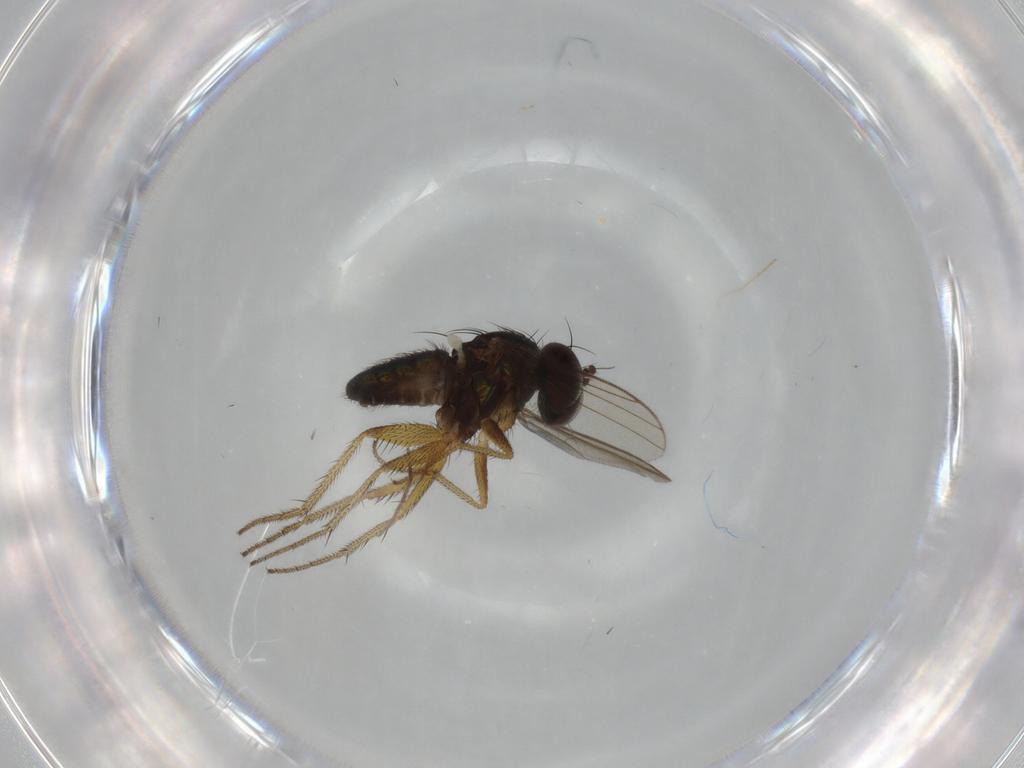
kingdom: Animalia
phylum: Arthropoda
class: Insecta
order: Diptera
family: Dolichopodidae
